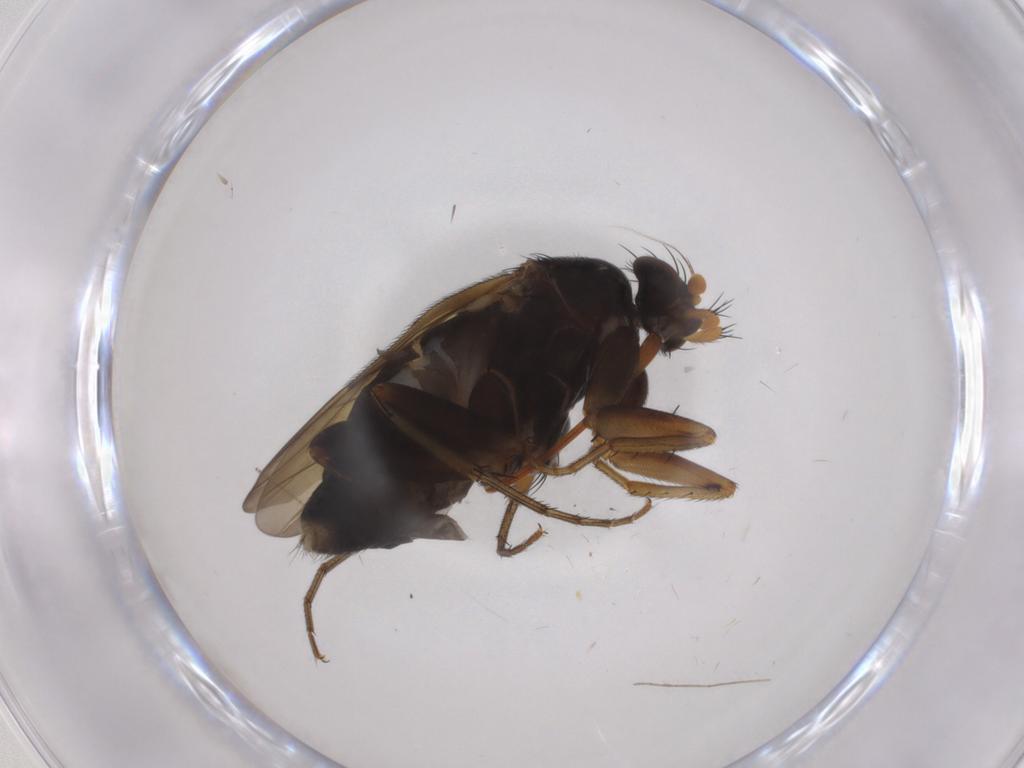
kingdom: Animalia
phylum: Arthropoda
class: Insecta
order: Diptera
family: Phoridae
